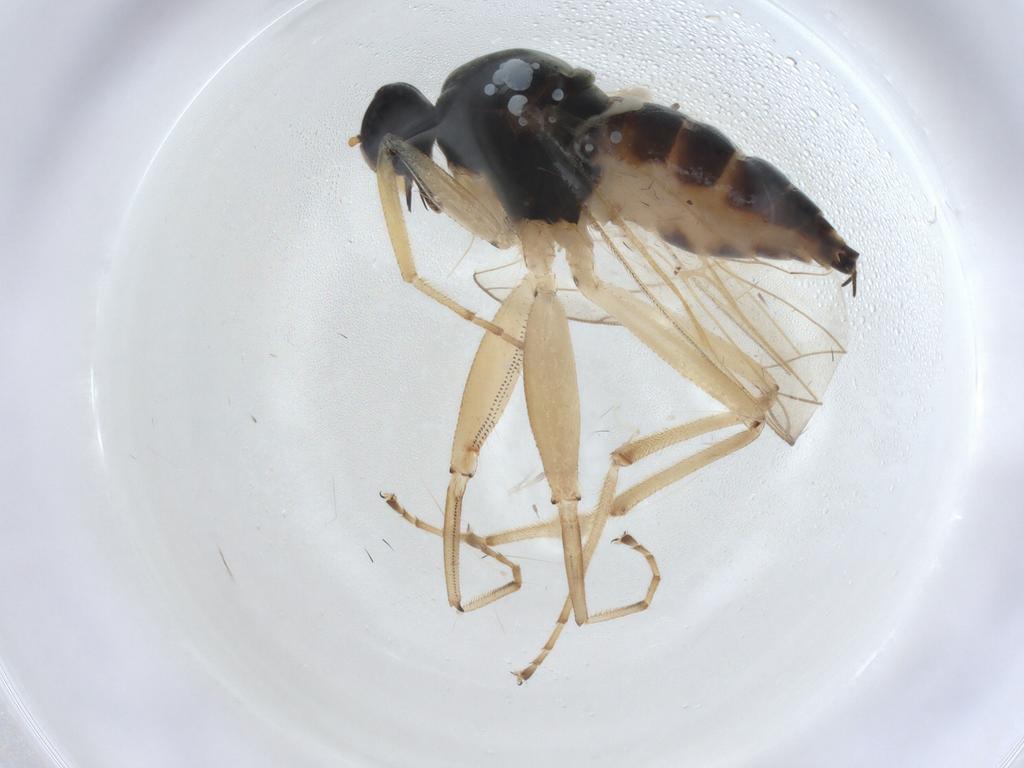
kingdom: Animalia
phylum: Arthropoda
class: Insecta
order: Diptera
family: Hybotidae
